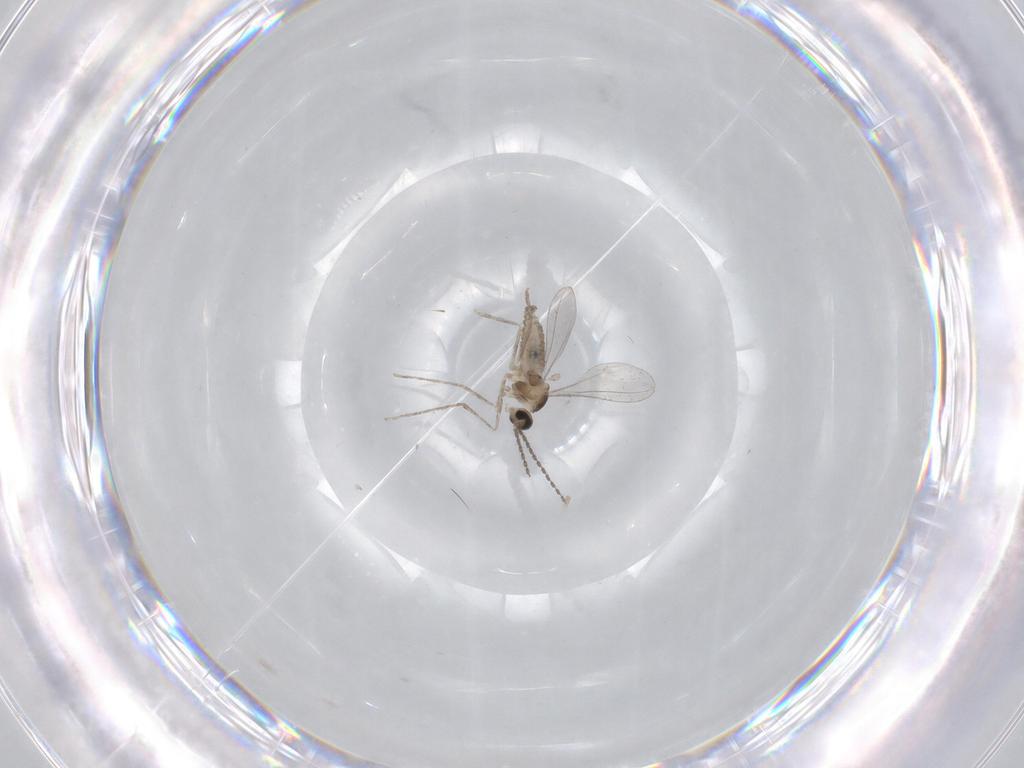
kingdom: Animalia
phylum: Arthropoda
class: Insecta
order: Diptera
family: Chironomidae
